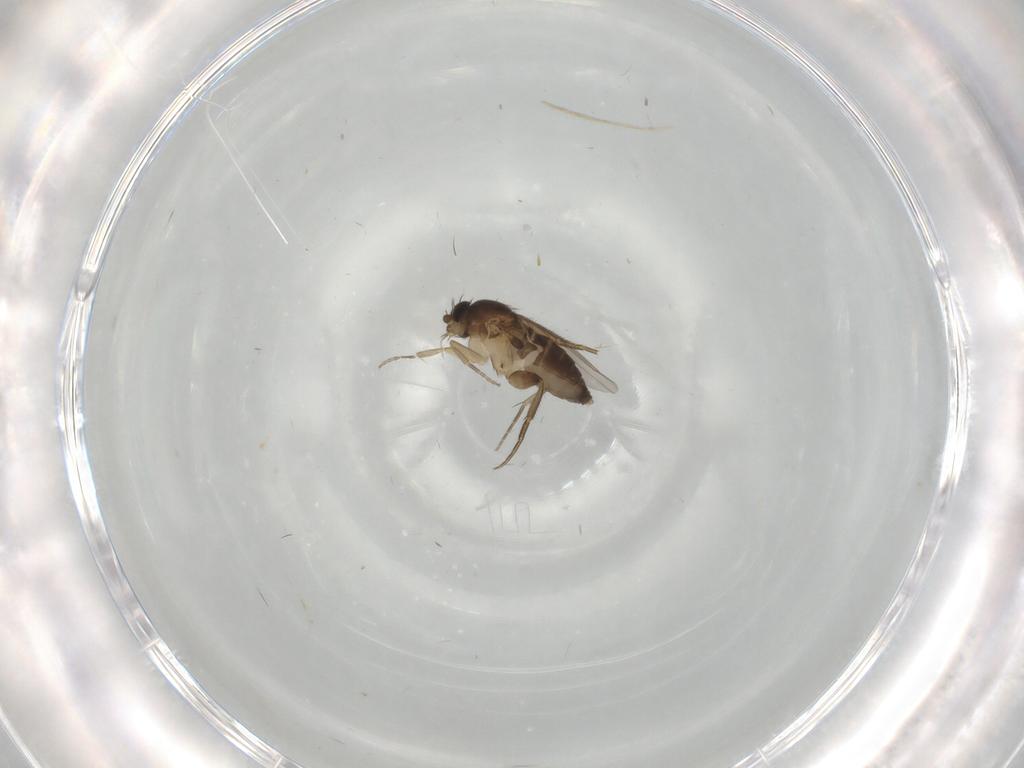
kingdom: Animalia
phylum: Arthropoda
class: Insecta
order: Diptera
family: Phoridae
